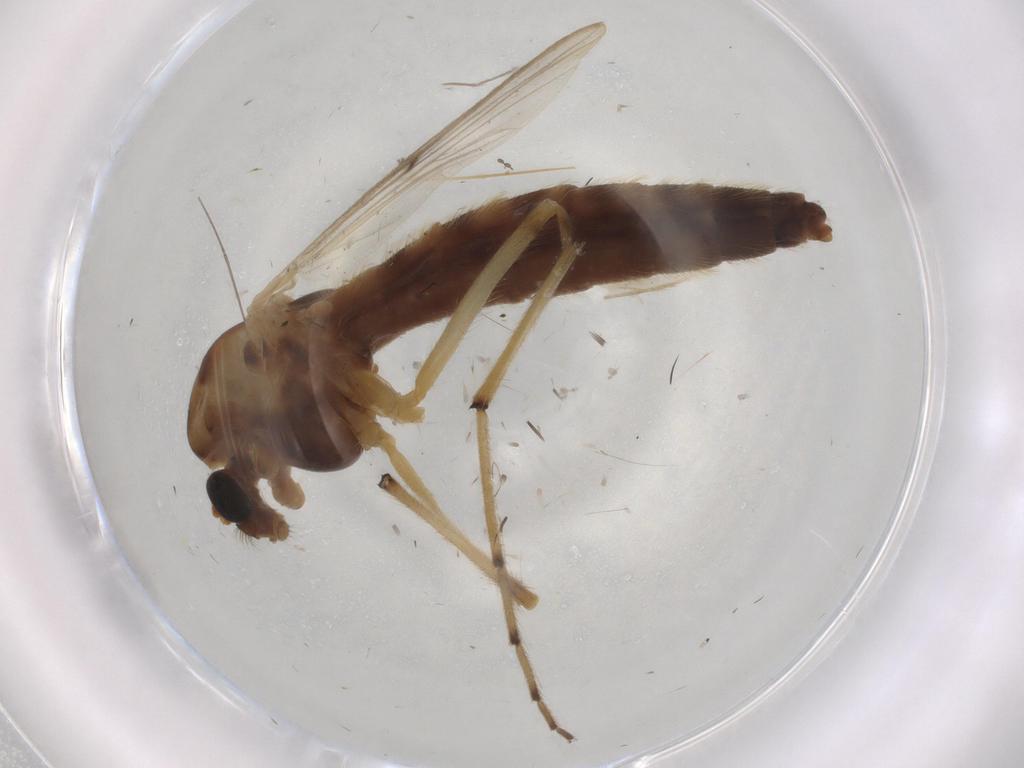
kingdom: Animalia
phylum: Arthropoda
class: Insecta
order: Diptera
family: Chironomidae
